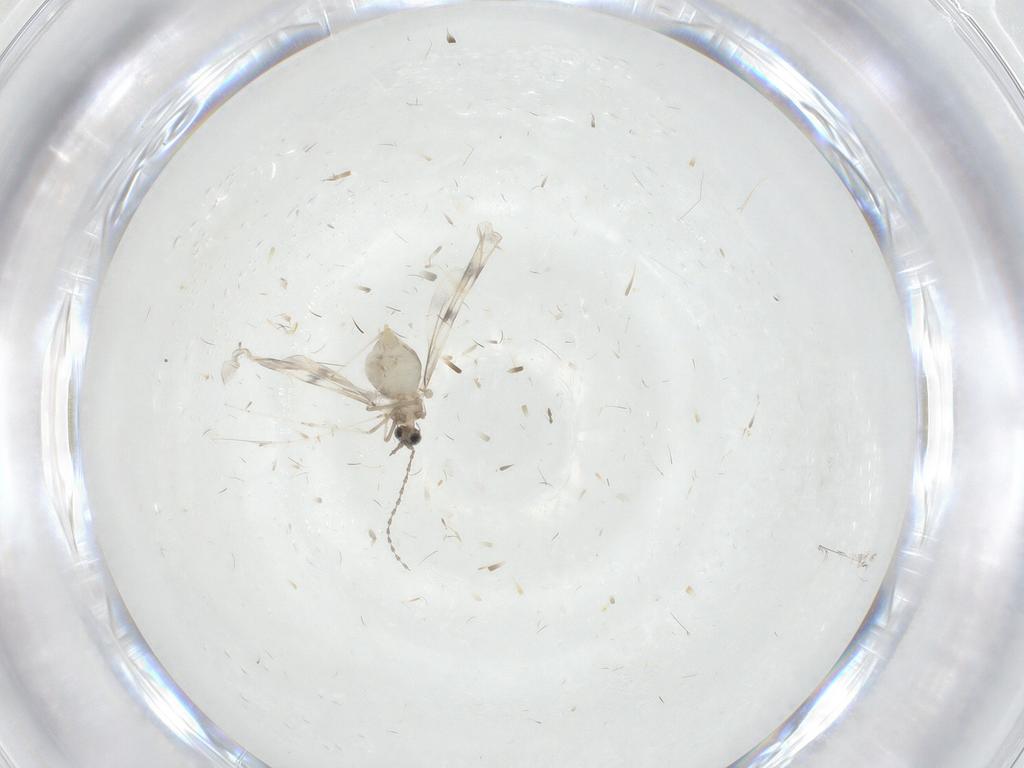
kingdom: Animalia
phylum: Arthropoda
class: Insecta
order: Diptera
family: Cecidomyiidae
